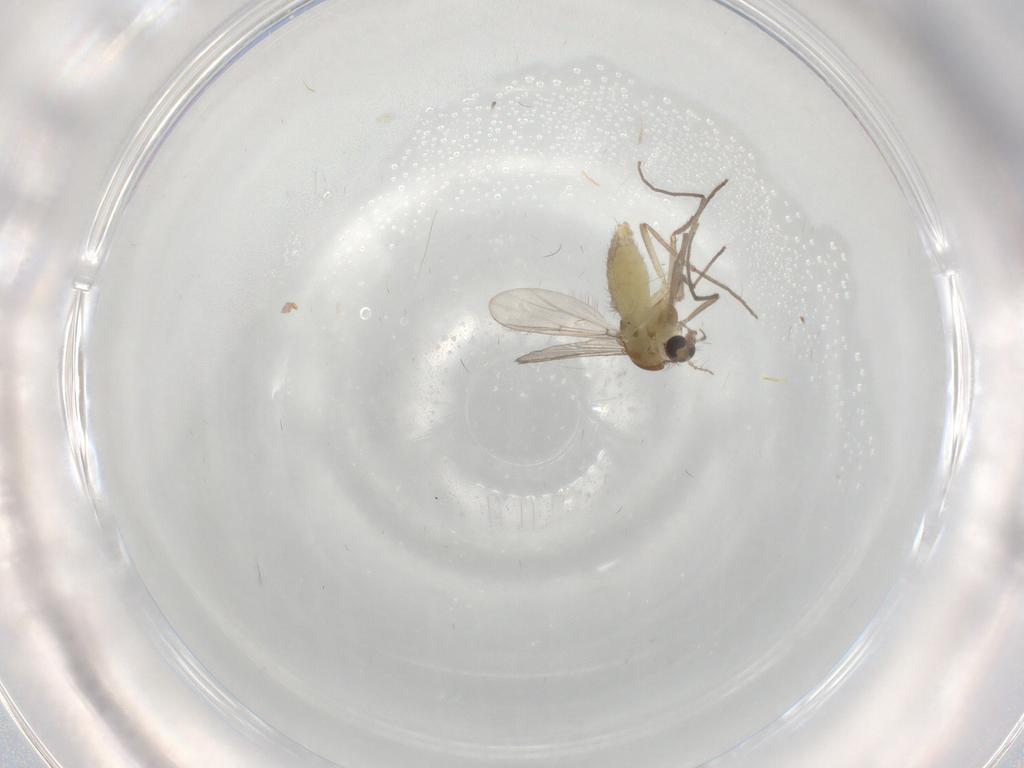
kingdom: Animalia
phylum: Arthropoda
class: Insecta
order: Diptera
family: Chironomidae
